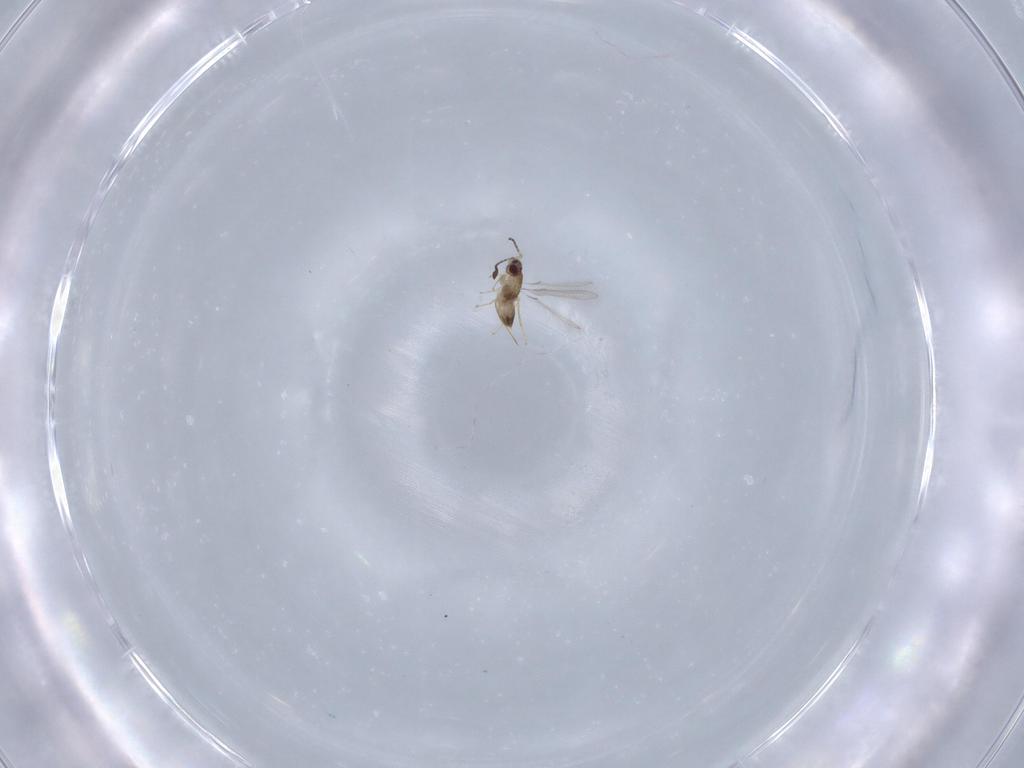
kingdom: Animalia
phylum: Arthropoda
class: Insecta
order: Hymenoptera
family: Mymaridae
